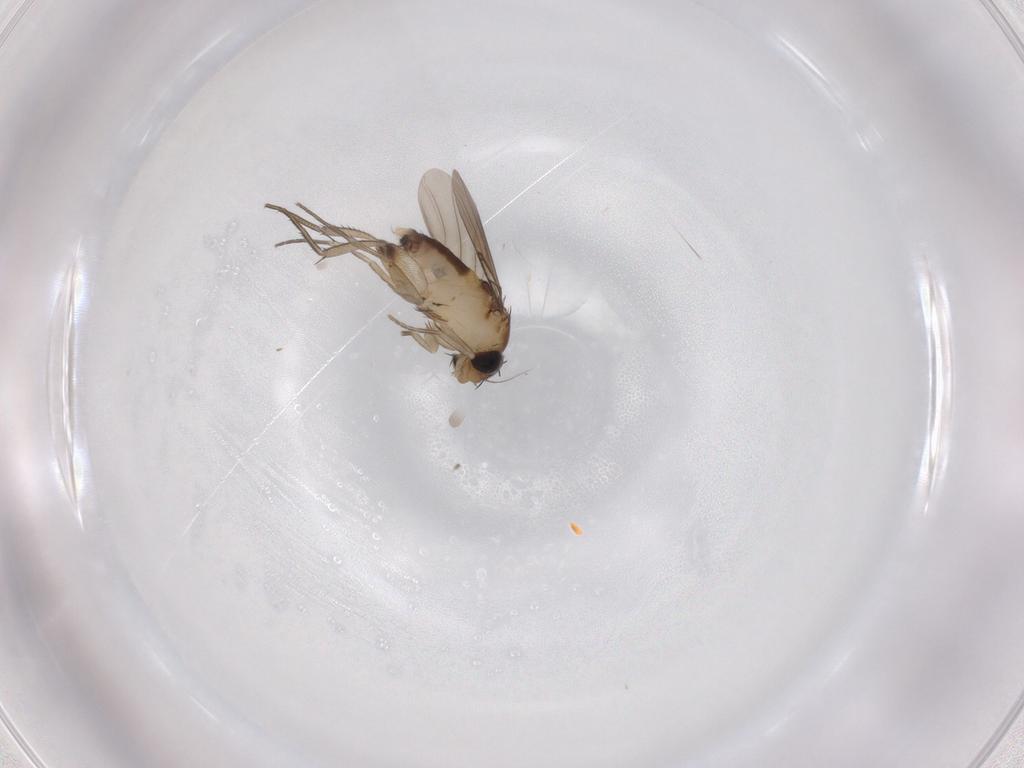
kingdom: Animalia
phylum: Arthropoda
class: Insecta
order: Diptera
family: Phoridae
